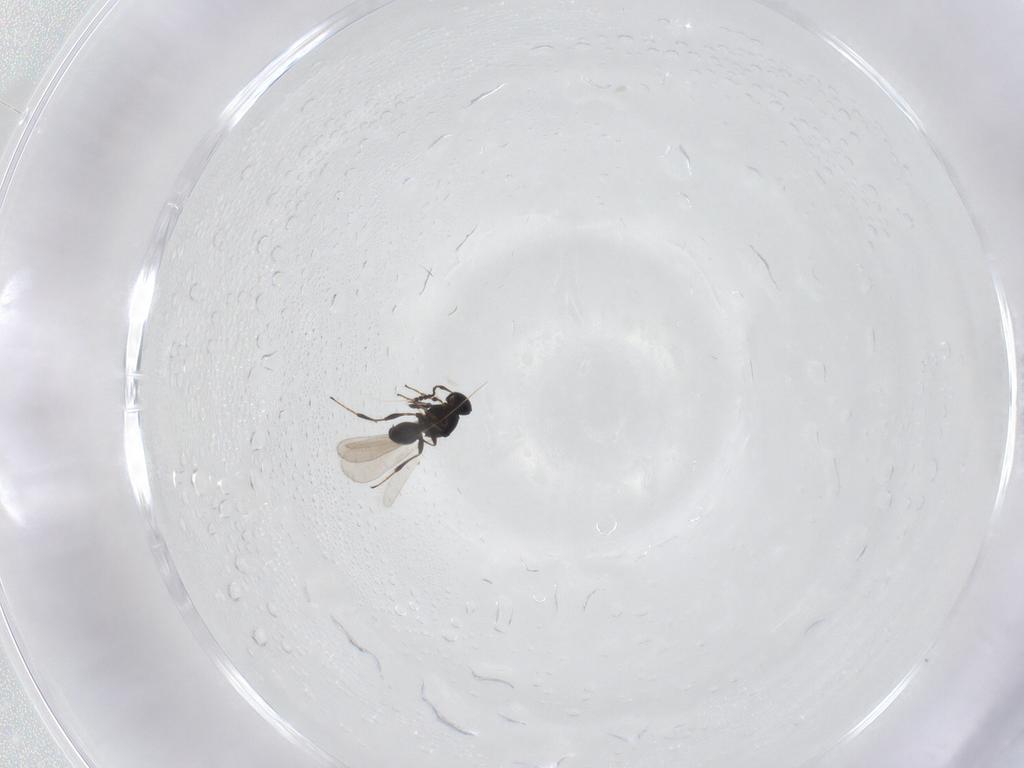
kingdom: Animalia
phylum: Arthropoda
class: Insecta
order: Hymenoptera
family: Platygastridae
